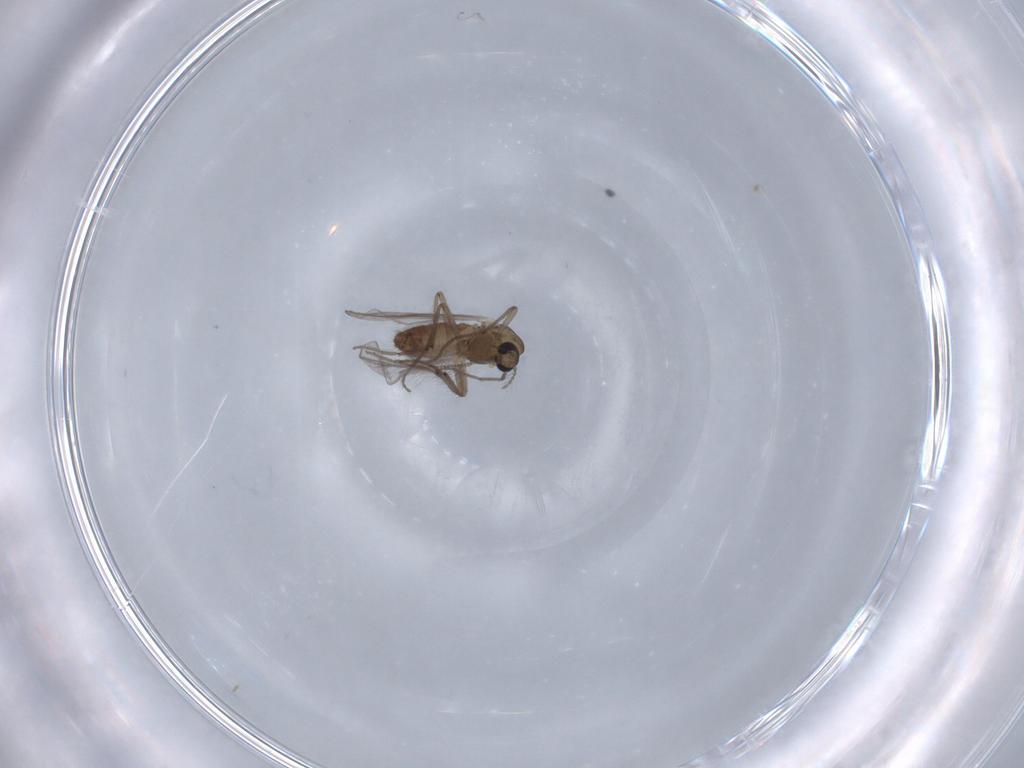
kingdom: Animalia
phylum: Arthropoda
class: Insecta
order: Diptera
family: Chironomidae
